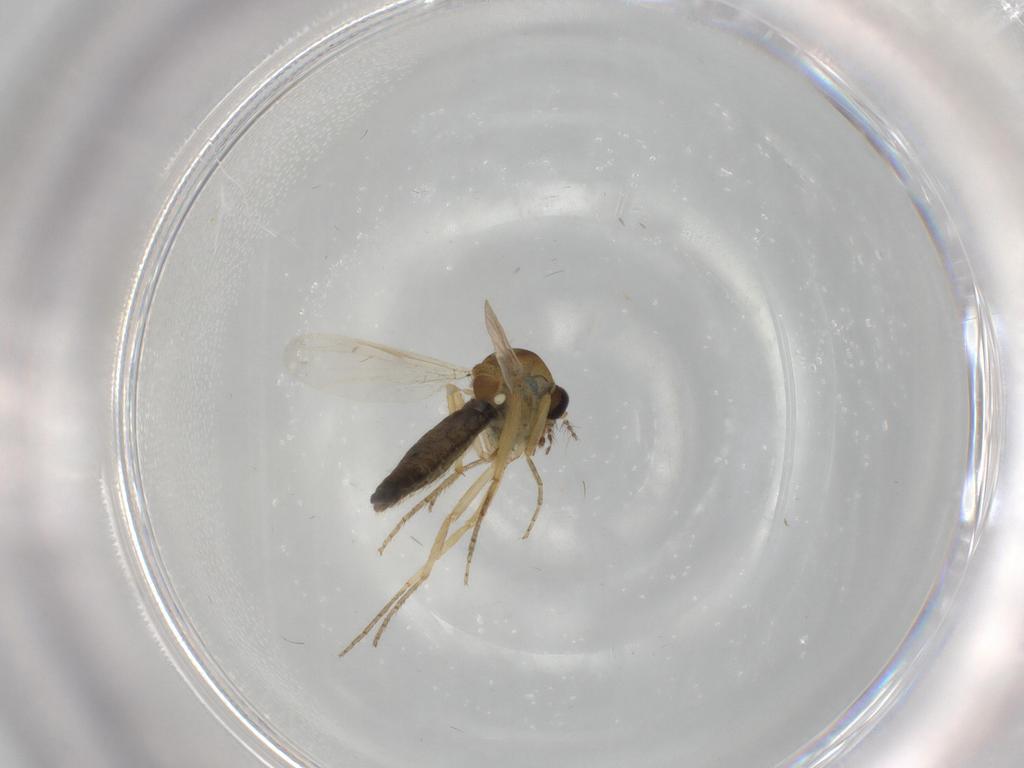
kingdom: Animalia
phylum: Arthropoda
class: Insecta
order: Diptera
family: Ceratopogonidae
